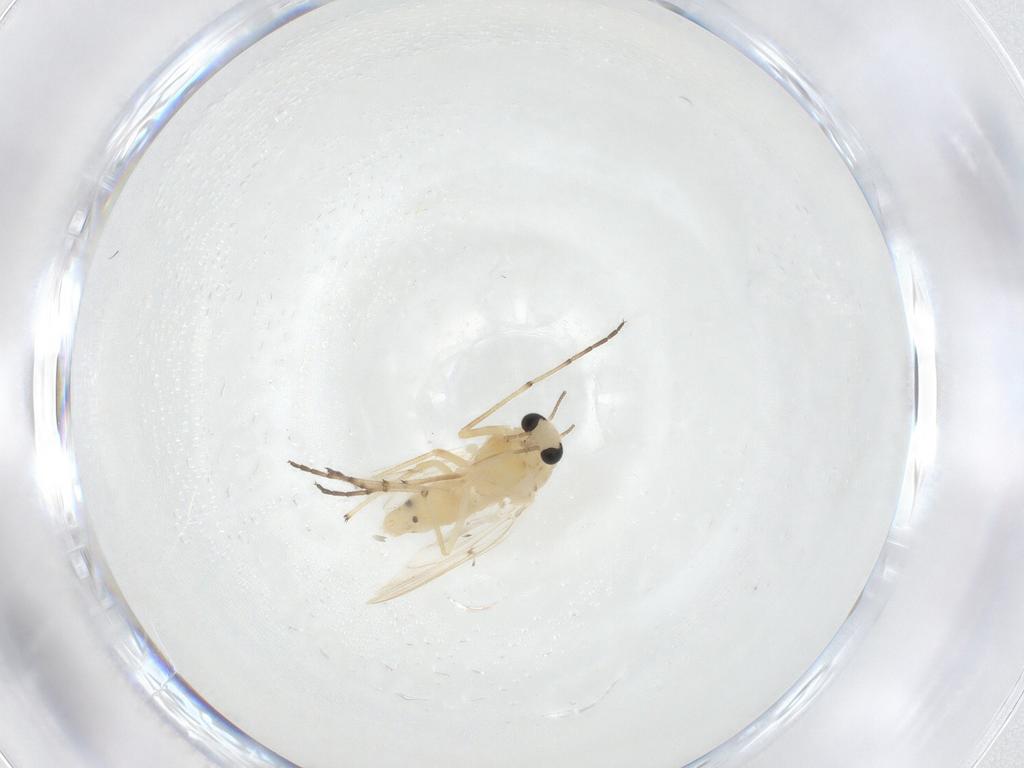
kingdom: Animalia
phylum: Arthropoda
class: Insecta
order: Diptera
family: Chironomidae
